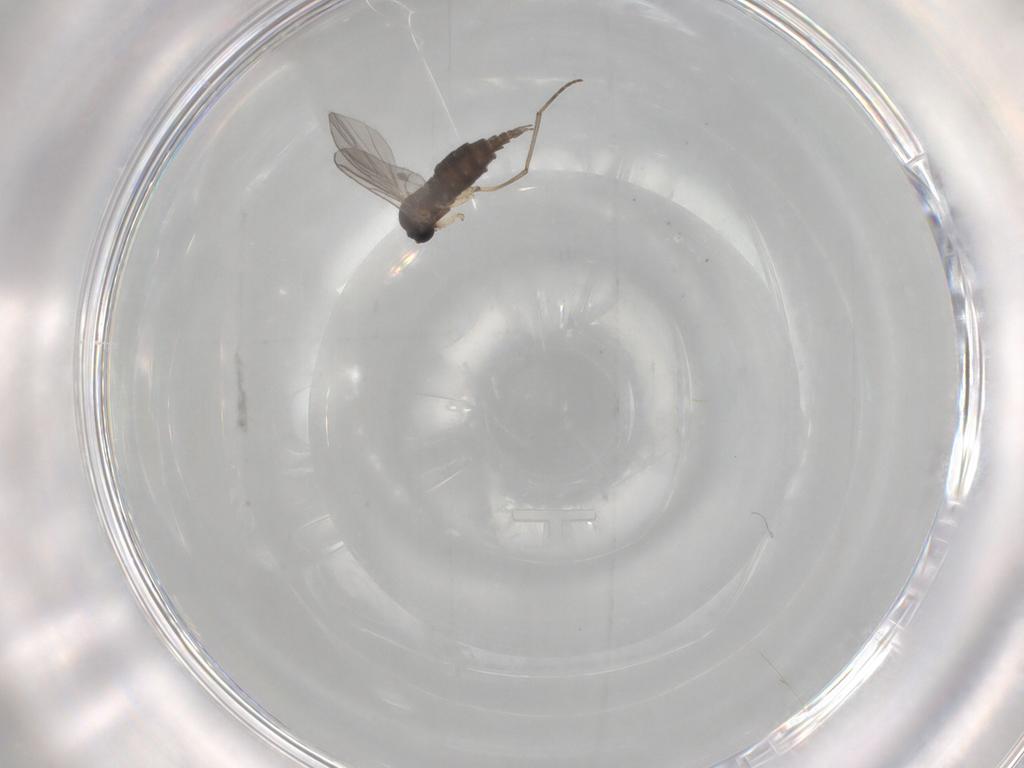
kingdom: Animalia
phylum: Arthropoda
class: Insecta
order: Diptera
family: Sciaridae
